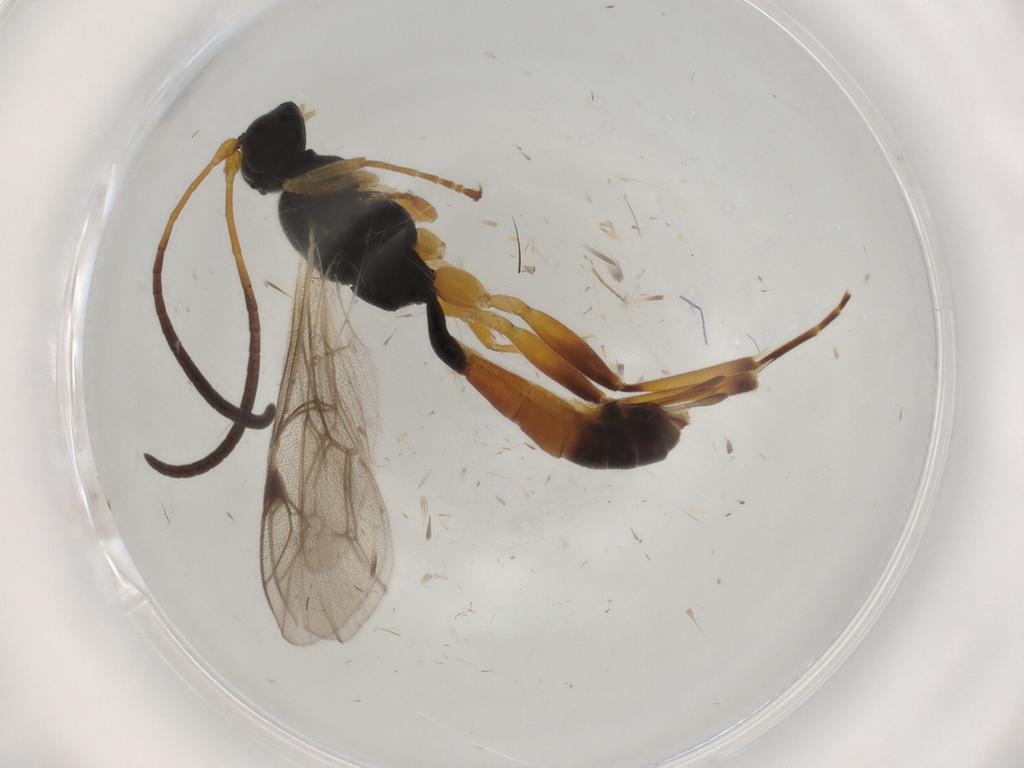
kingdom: Animalia
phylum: Arthropoda
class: Insecta
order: Hymenoptera
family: Ichneumonidae
